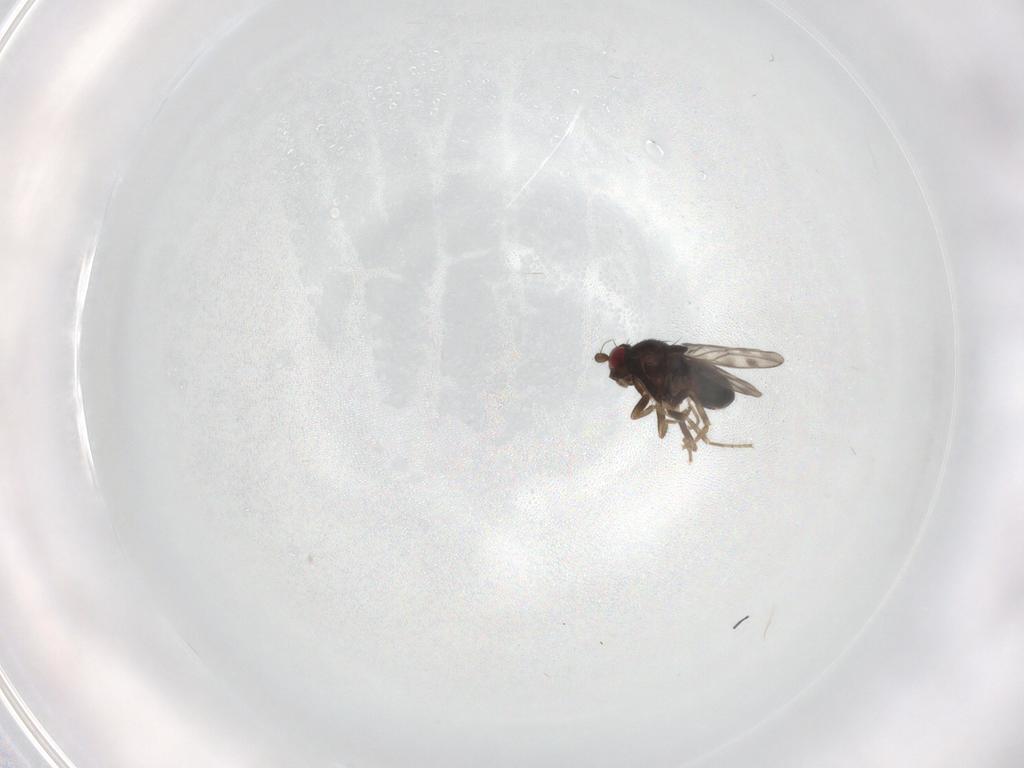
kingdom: Animalia
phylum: Arthropoda
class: Insecta
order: Diptera
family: Sphaeroceridae
